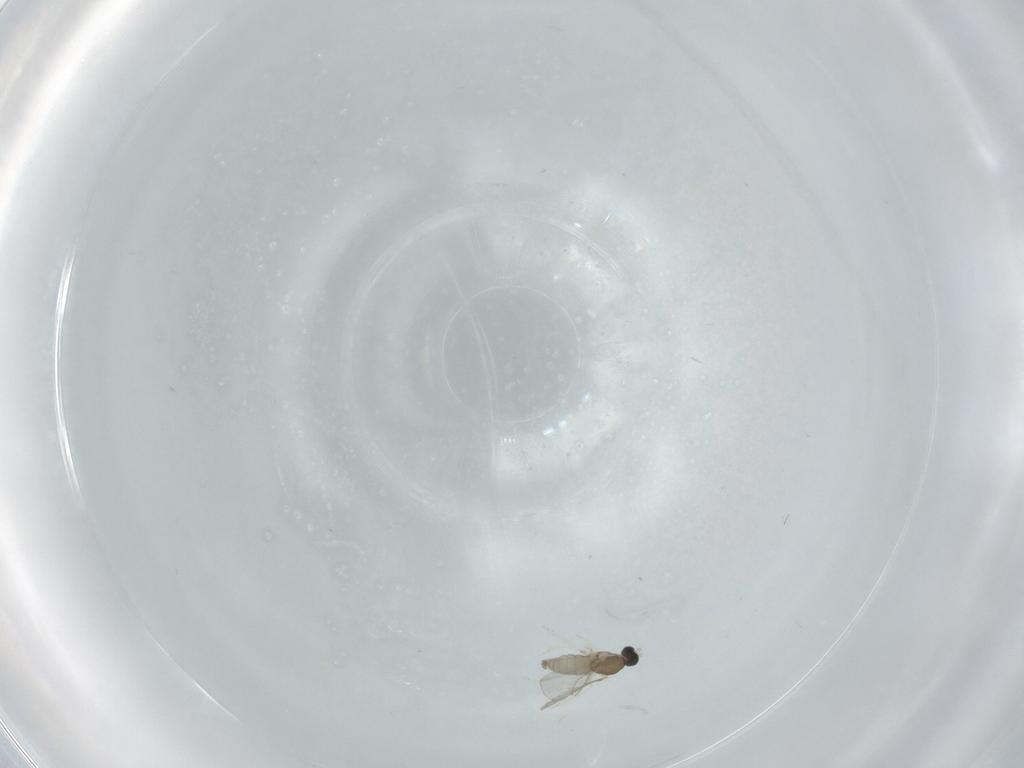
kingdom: Animalia
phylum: Arthropoda
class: Insecta
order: Diptera
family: Cecidomyiidae
